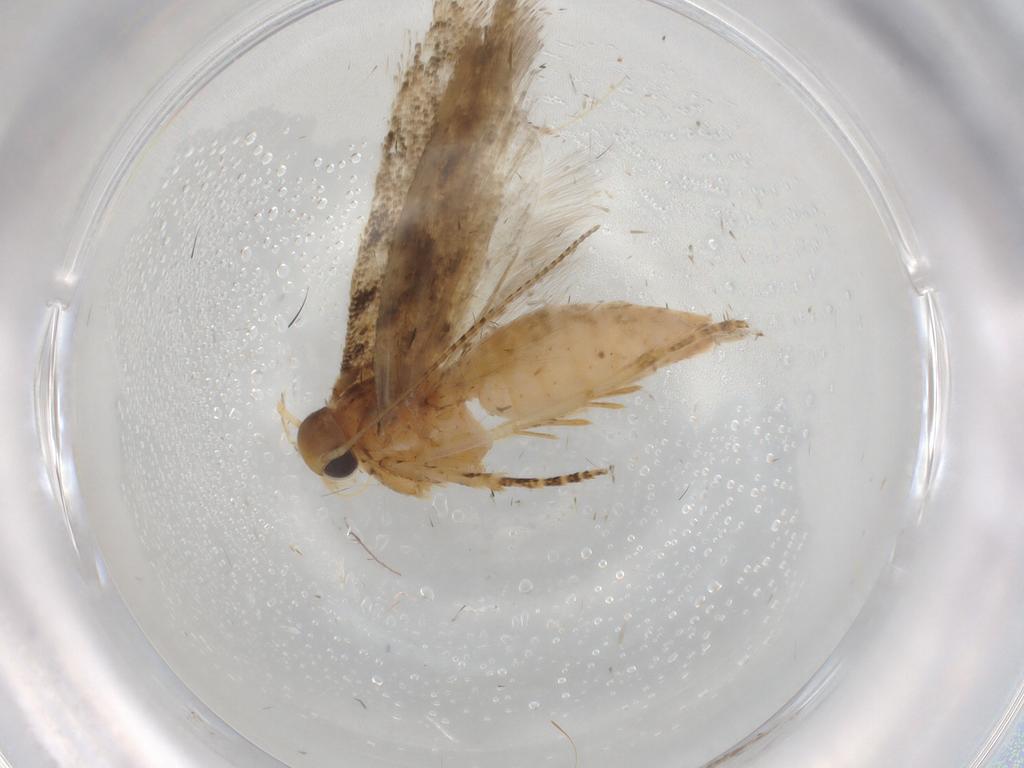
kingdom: Animalia
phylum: Arthropoda
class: Insecta
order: Lepidoptera
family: Gelechiidae
